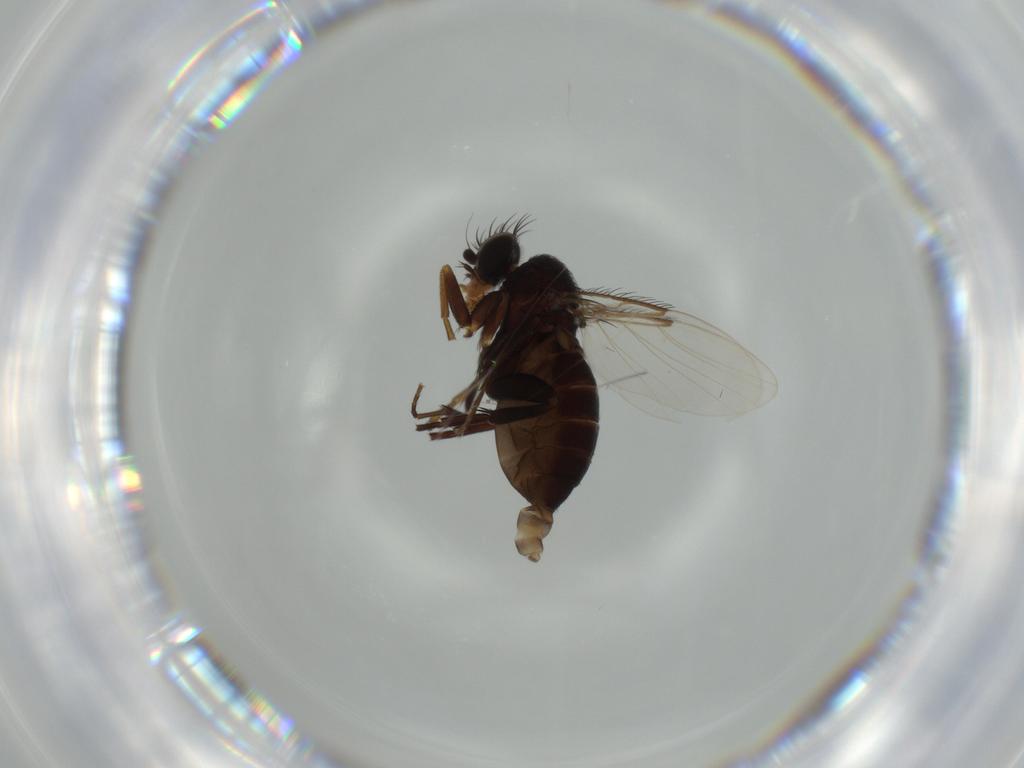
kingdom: Animalia
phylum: Arthropoda
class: Insecta
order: Diptera
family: Phoridae
